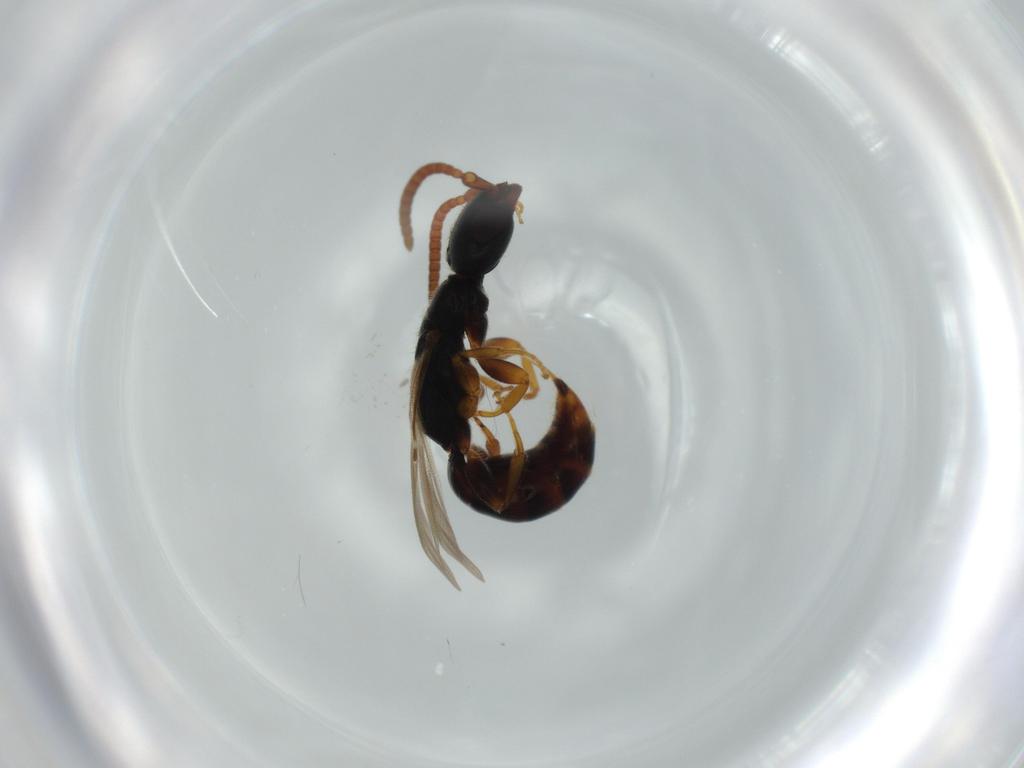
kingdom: Animalia
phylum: Arthropoda
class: Insecta
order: Hymenoptera
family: Bethylidae
